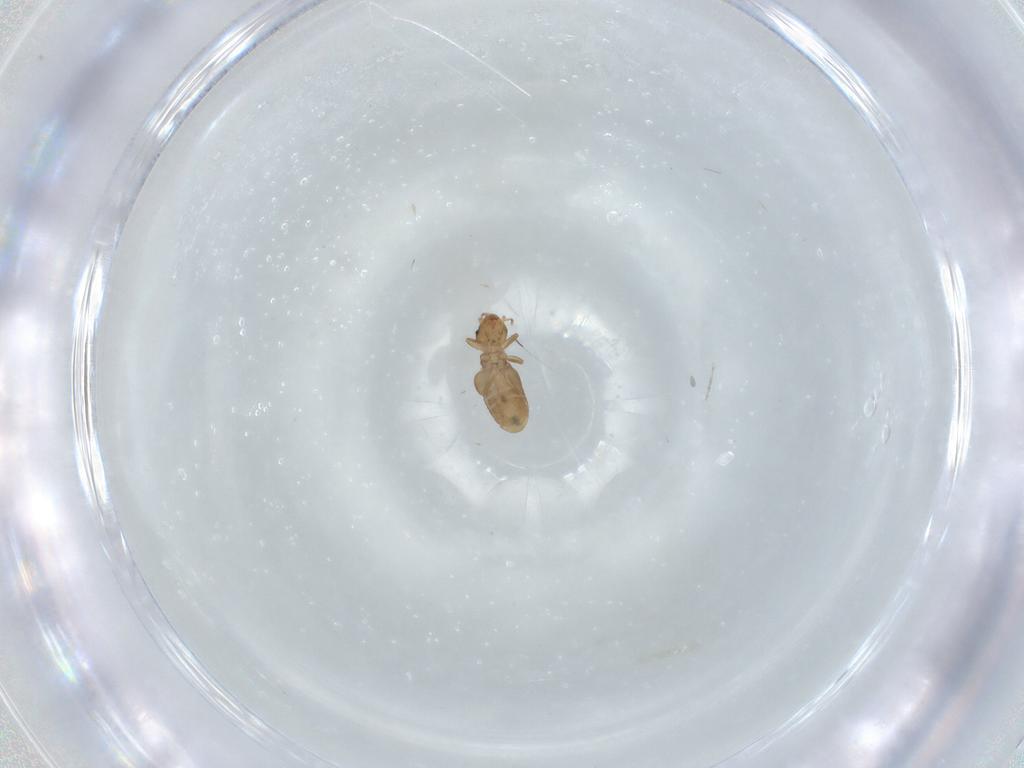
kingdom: Animalia
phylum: Arthropoda
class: Insecta
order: Psocodea
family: Liposcelididae
